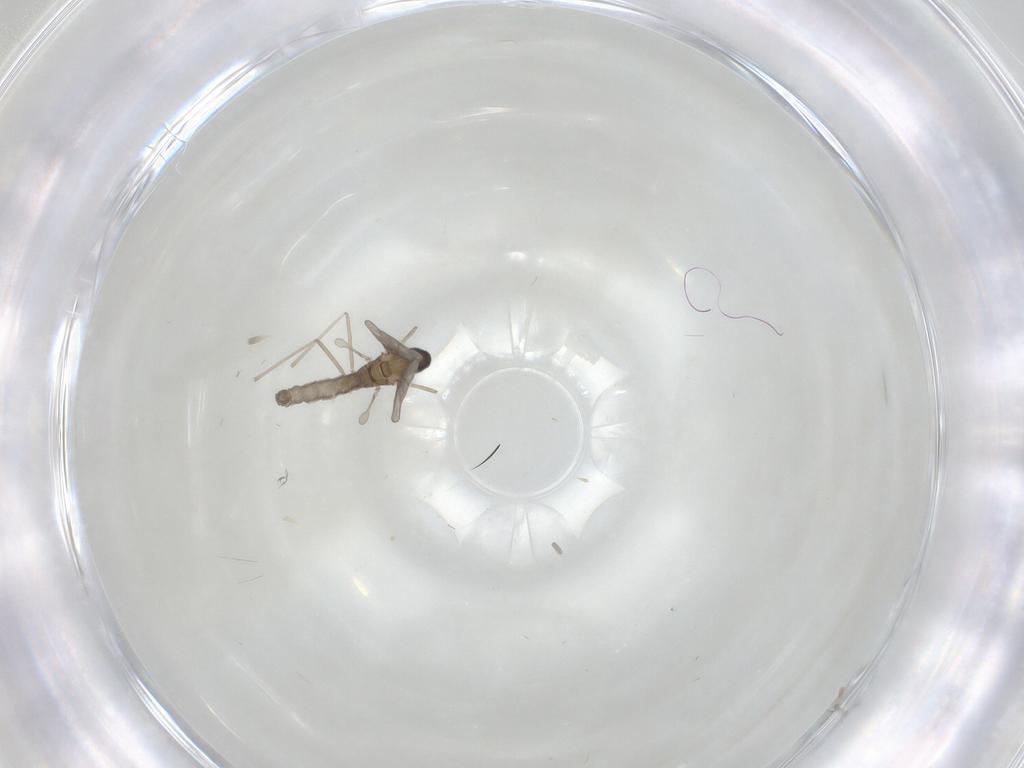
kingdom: Animalia
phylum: Arthropoda
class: Insecta
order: Diptera
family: Cecidomyiidae
